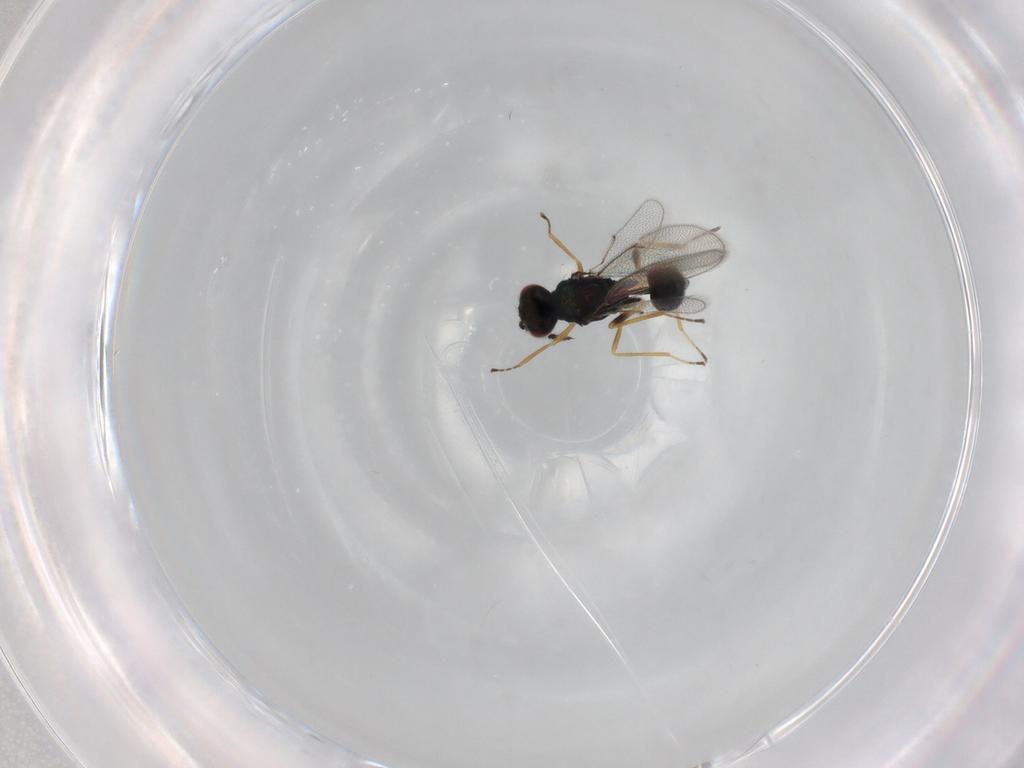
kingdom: Animalia
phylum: Arthropoda
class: Insecta
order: Hymenoptera
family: Eulophidae
